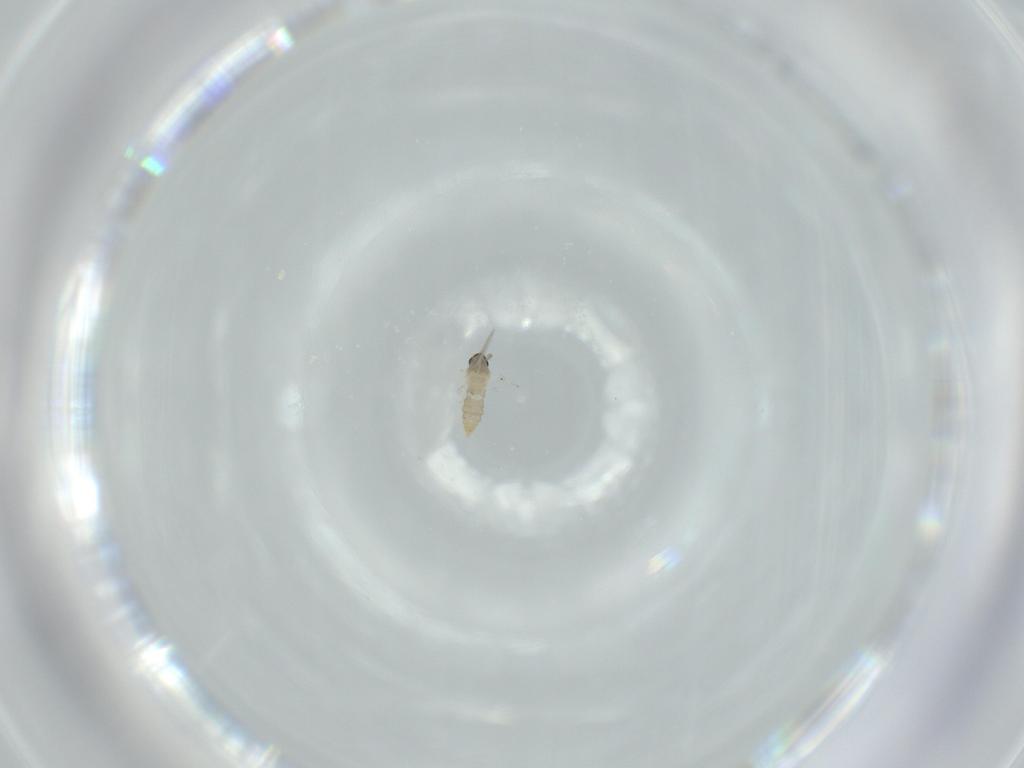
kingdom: Animalia
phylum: Arthropoda
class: Insecta
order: Diptera
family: Cecidomyiidae
